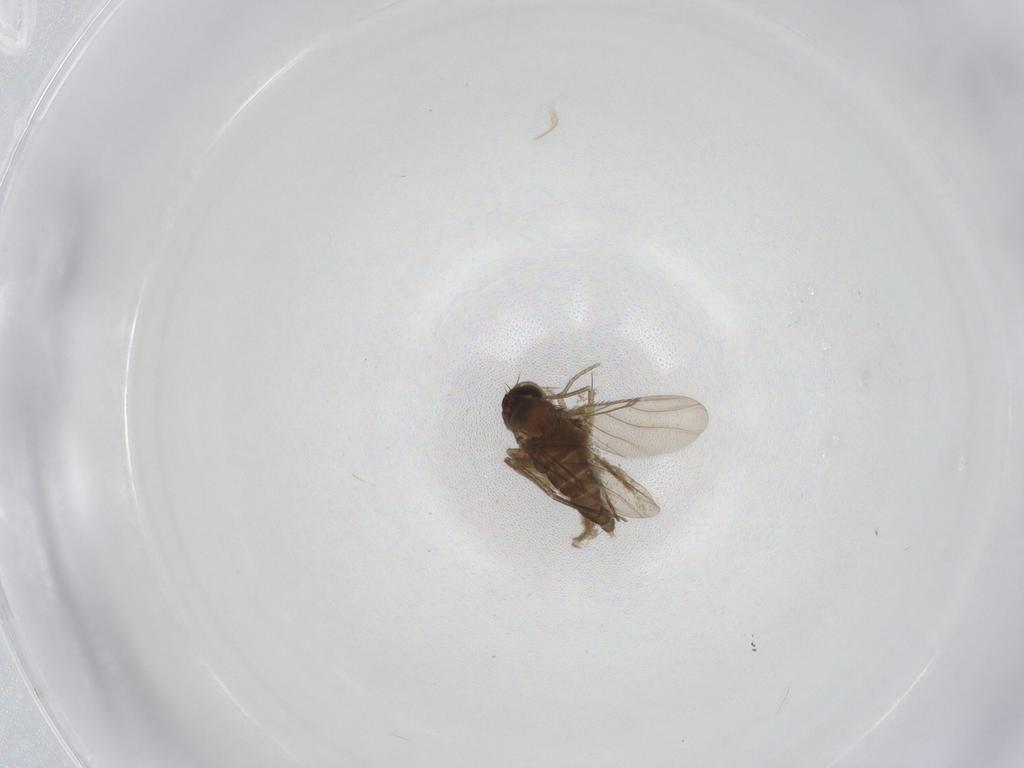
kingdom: Animalia
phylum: Arthropoda
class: Insecta
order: Diptera
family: Phoridae
